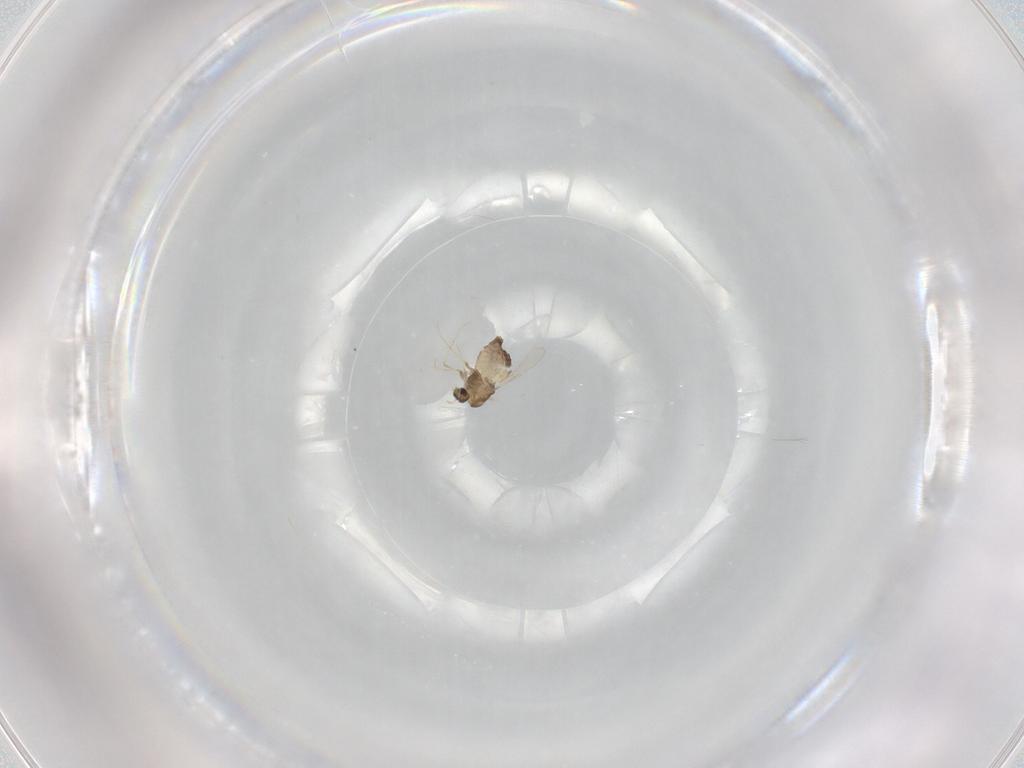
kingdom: Animalia
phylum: Arthropoda
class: Insecta
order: Diptera
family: Chironomidae
